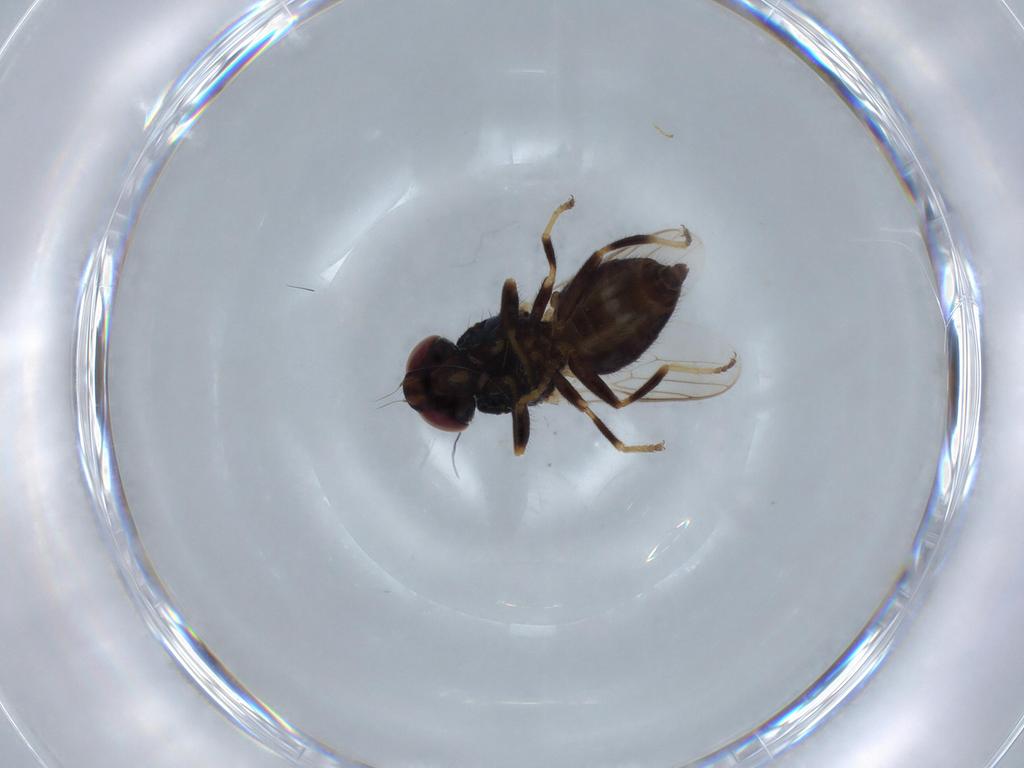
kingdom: Animalia
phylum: Arthropoda
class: Insecta
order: Diptera
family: Chloropidae
